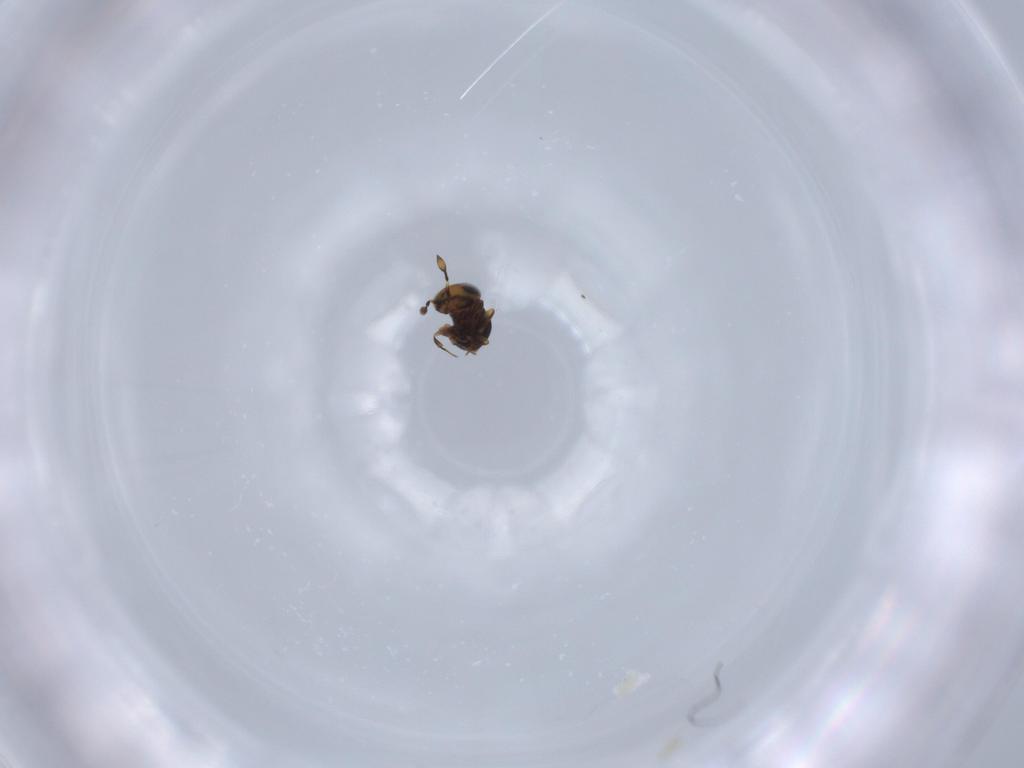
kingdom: Animalia
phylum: Arthropoda
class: Insecta
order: Hymenoptera
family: Scelionidae
